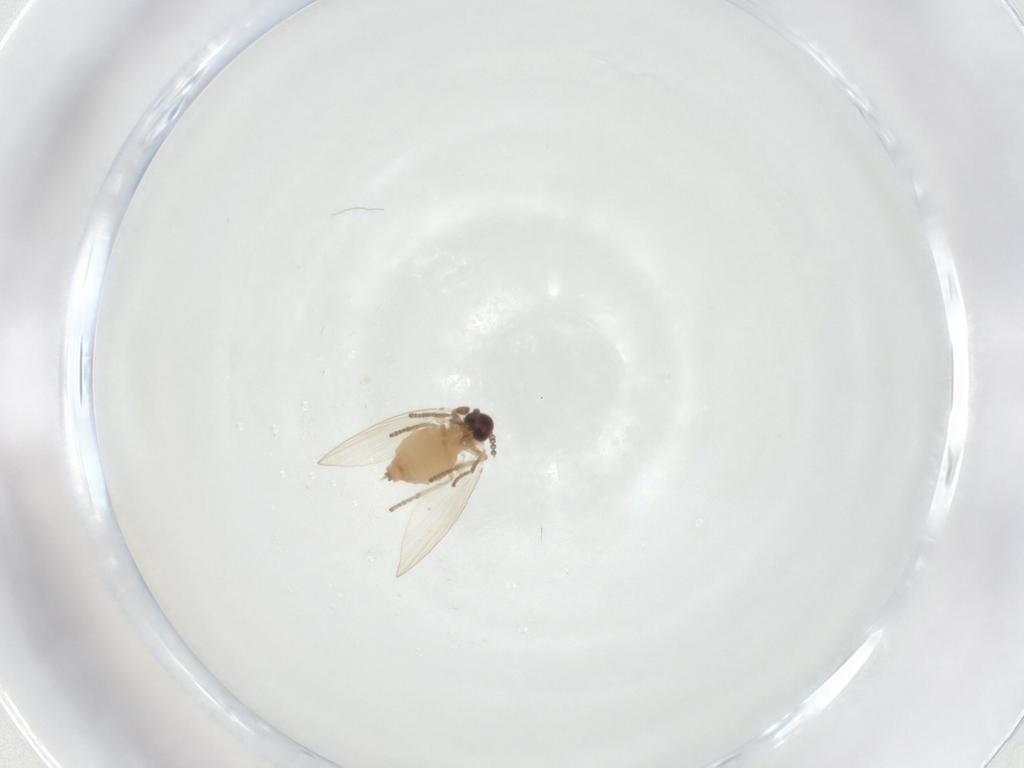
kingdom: Animalia
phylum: Arthropoda
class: Insecta
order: Diptera
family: Psychodidae
